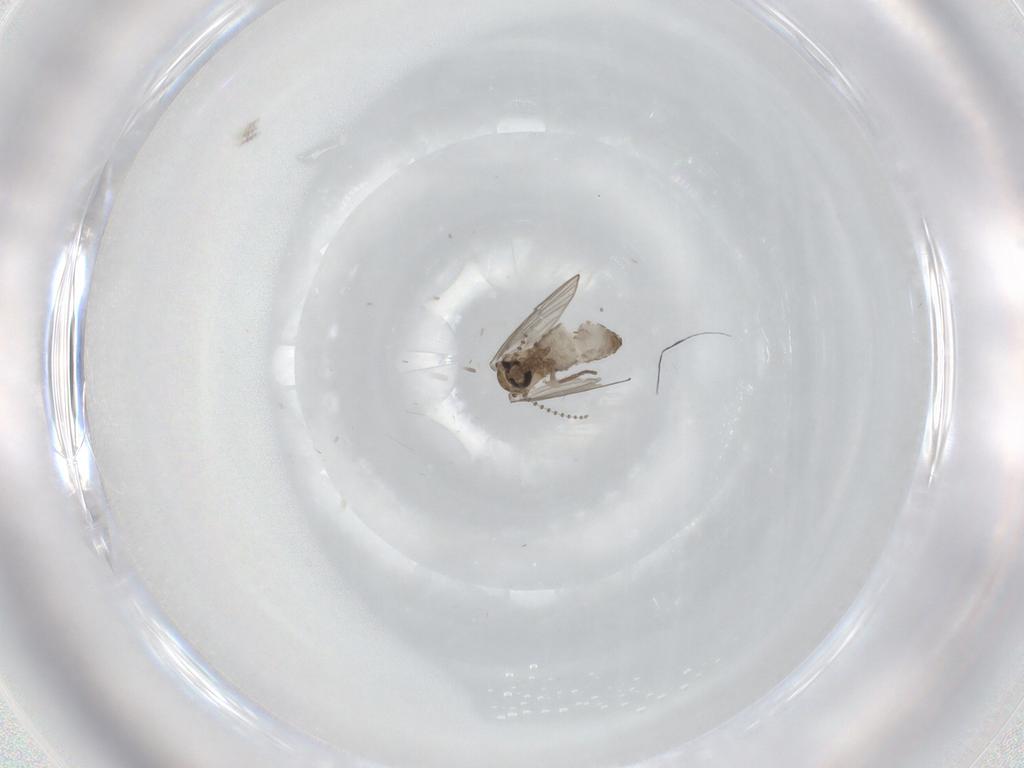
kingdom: Animalia
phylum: Arthropoda
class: Insecta
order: Diptera
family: Psychodidae
